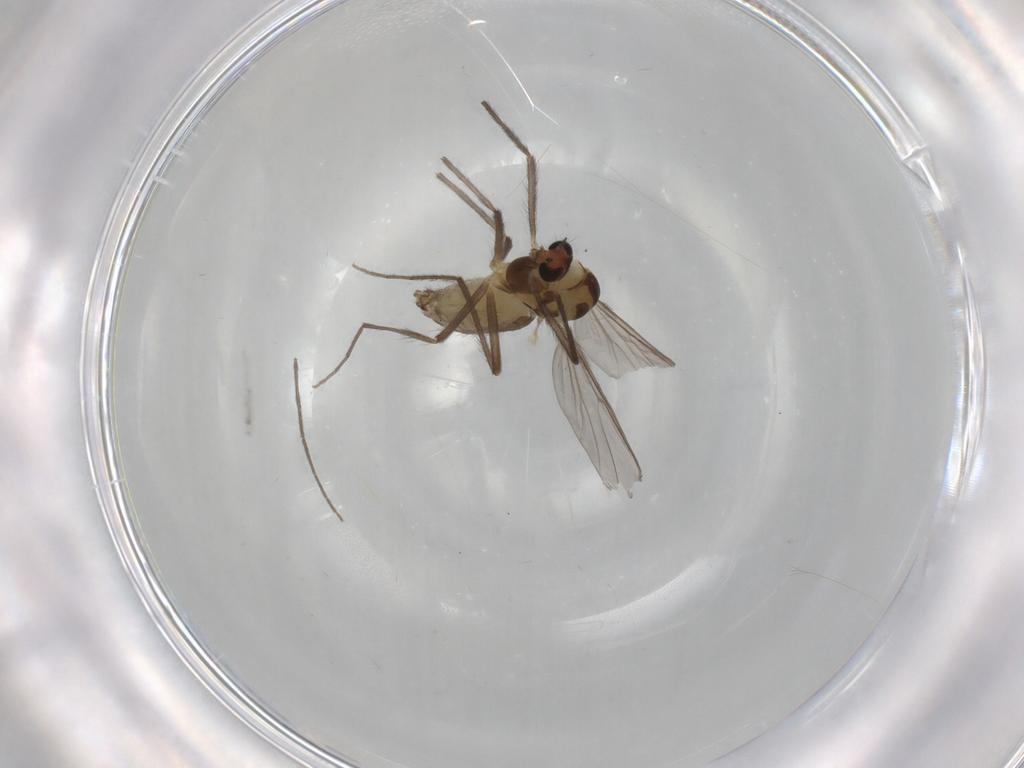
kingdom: Animalia
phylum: Arthropoda
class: Insecta
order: Diptera
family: Chironomidae
